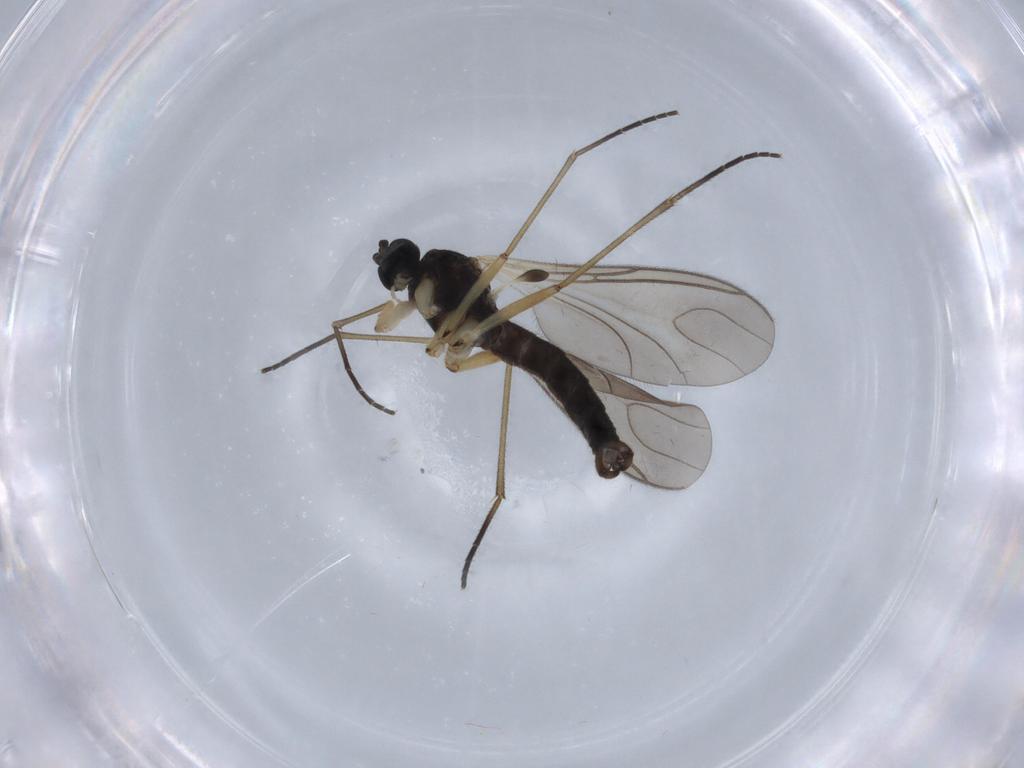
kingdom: Animalia
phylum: Arthropoda
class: Insecta
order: Diptera
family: Sciaridae
